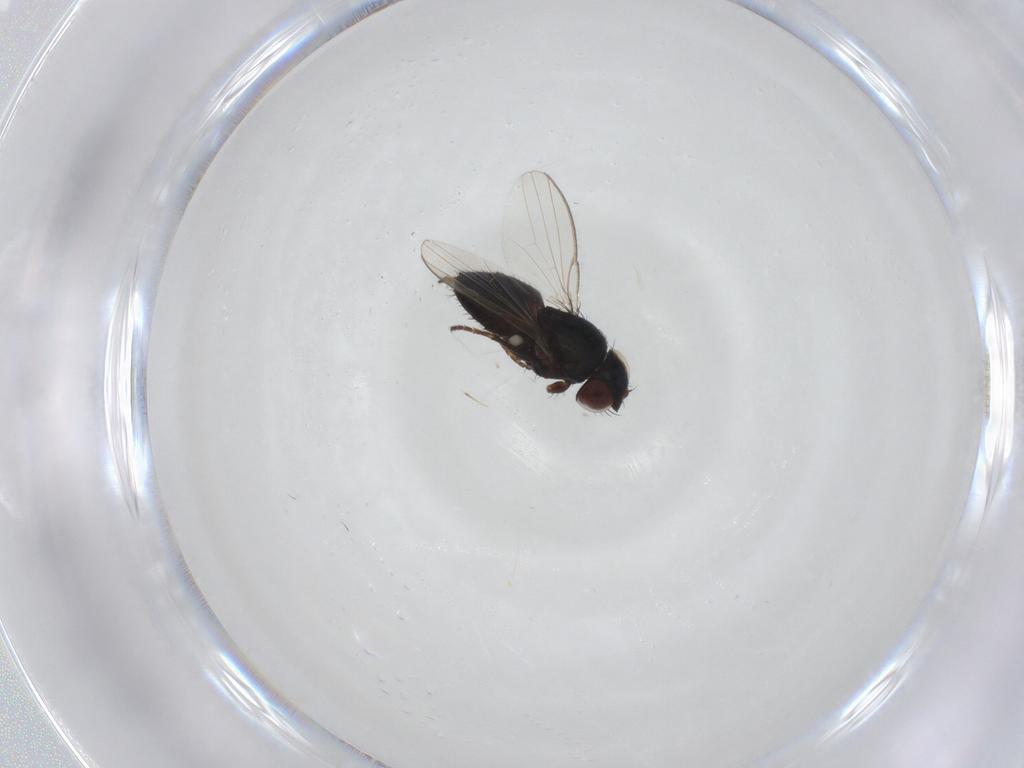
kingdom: Animalia
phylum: Arthropoda
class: Insecta
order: Diptera
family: Milichiidae
